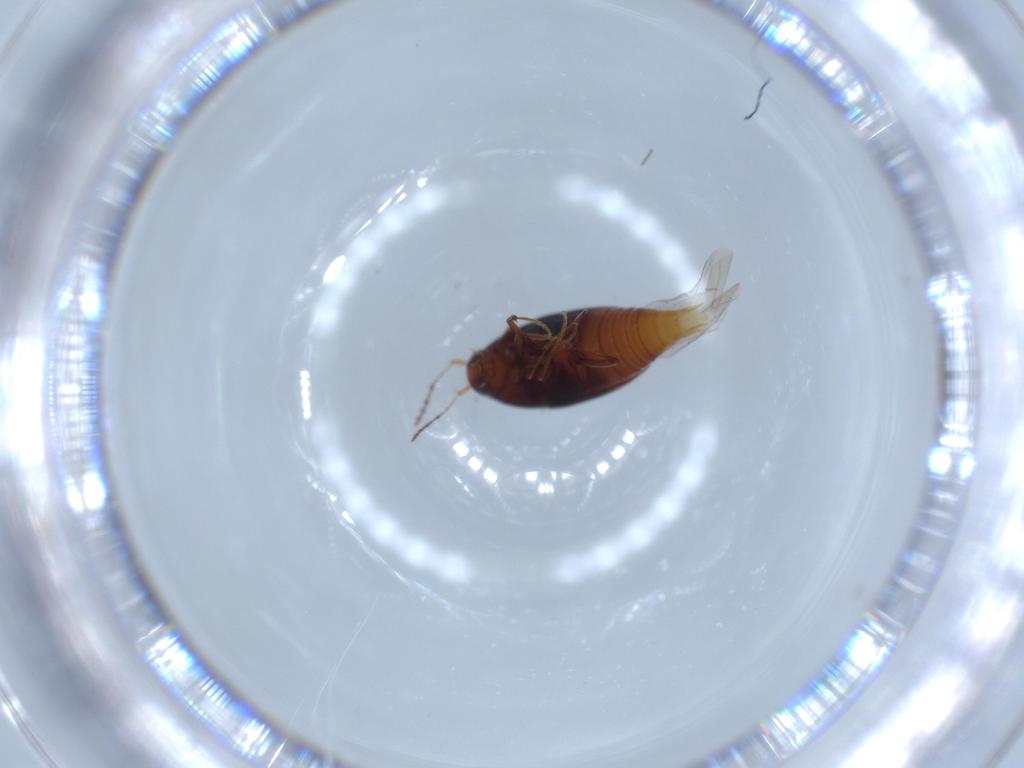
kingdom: Animalia
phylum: Arthropoda
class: Insecta
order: Coleoptera
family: Staphylinidae
